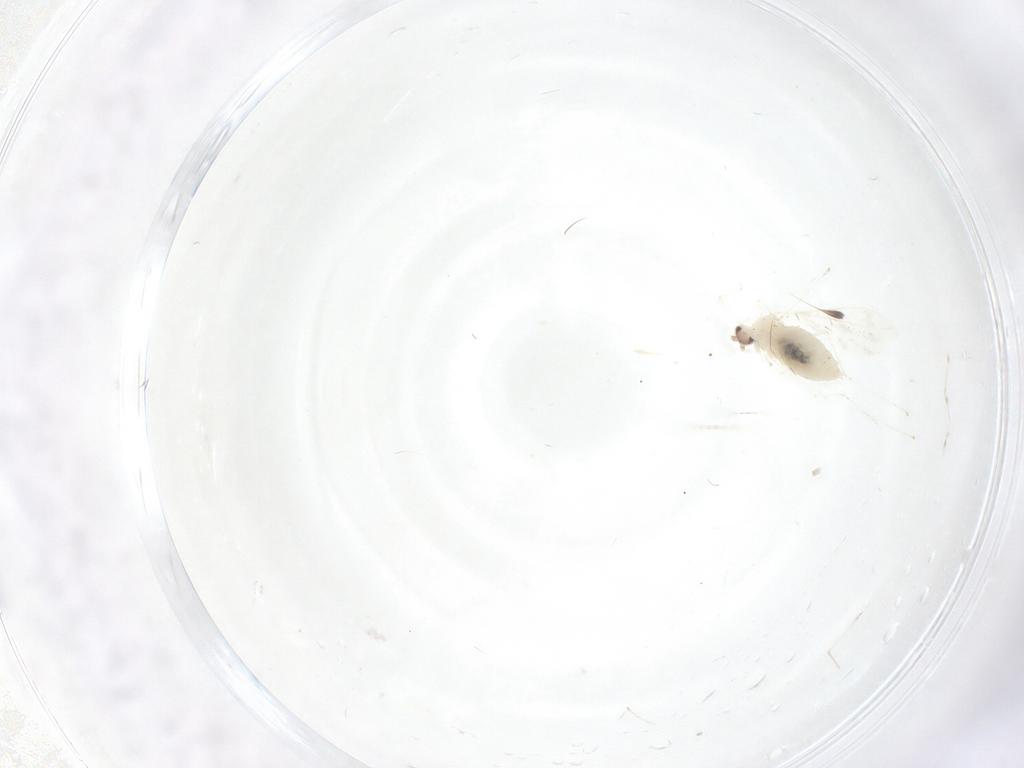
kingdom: Animalia
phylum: Arthropoda
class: Insecta
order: Diptera
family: Cecidomyiidae
